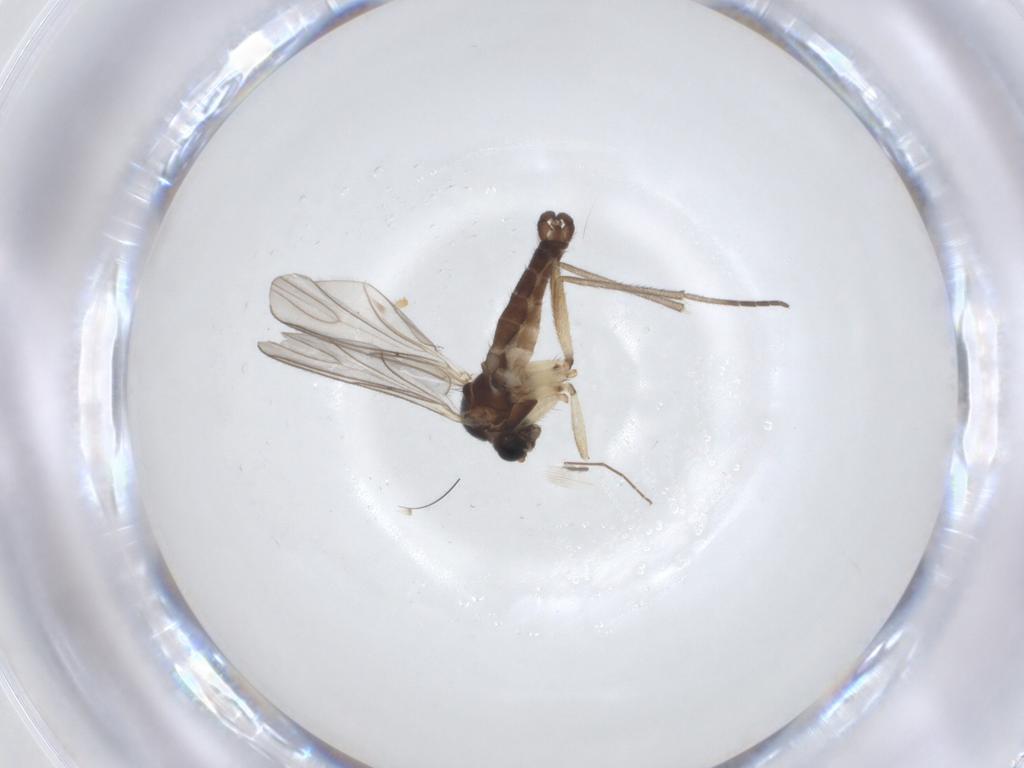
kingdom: Animalia
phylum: Arthropoda
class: Insecta
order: Diptera
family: Sciaridae
